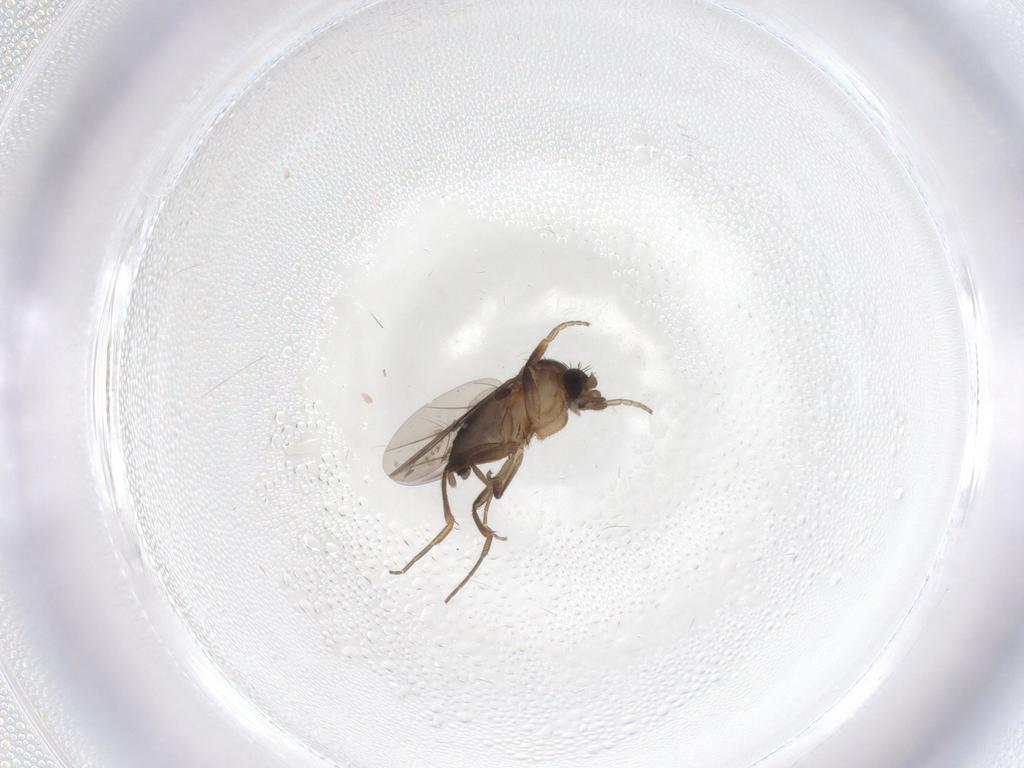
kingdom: Animalia
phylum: Arthropoda
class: Insecta
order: Diptera
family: Phoridae
